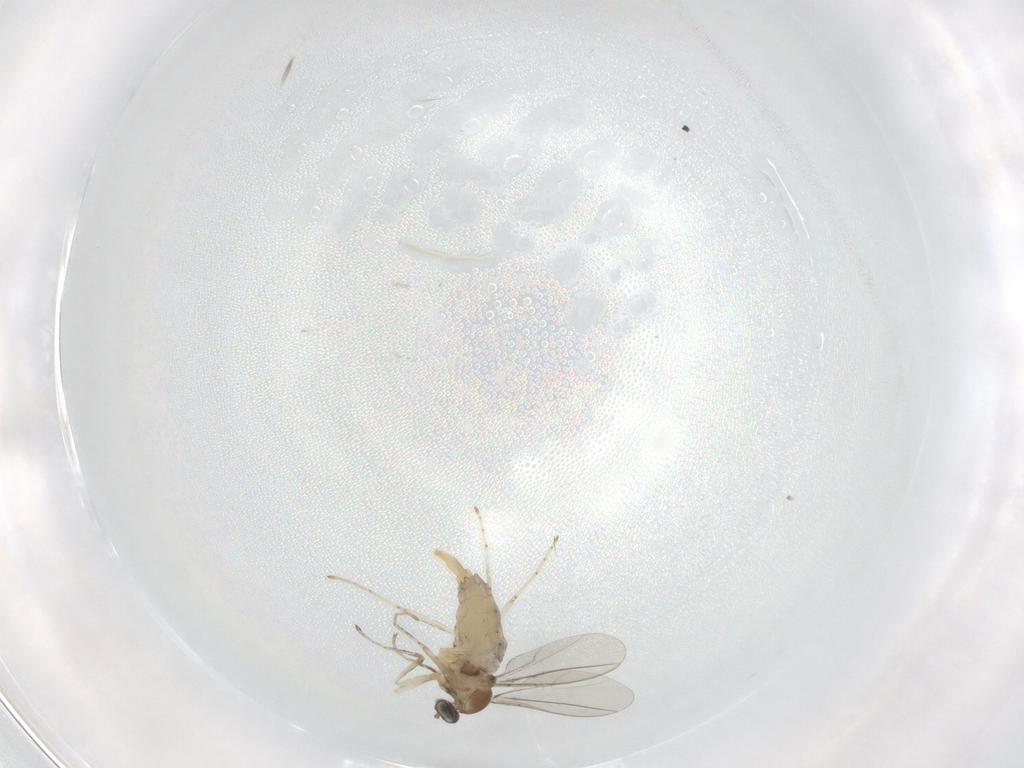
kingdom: Animalia
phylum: Arthropoda
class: Insecta
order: Diptera
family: Cecidomyiidae
